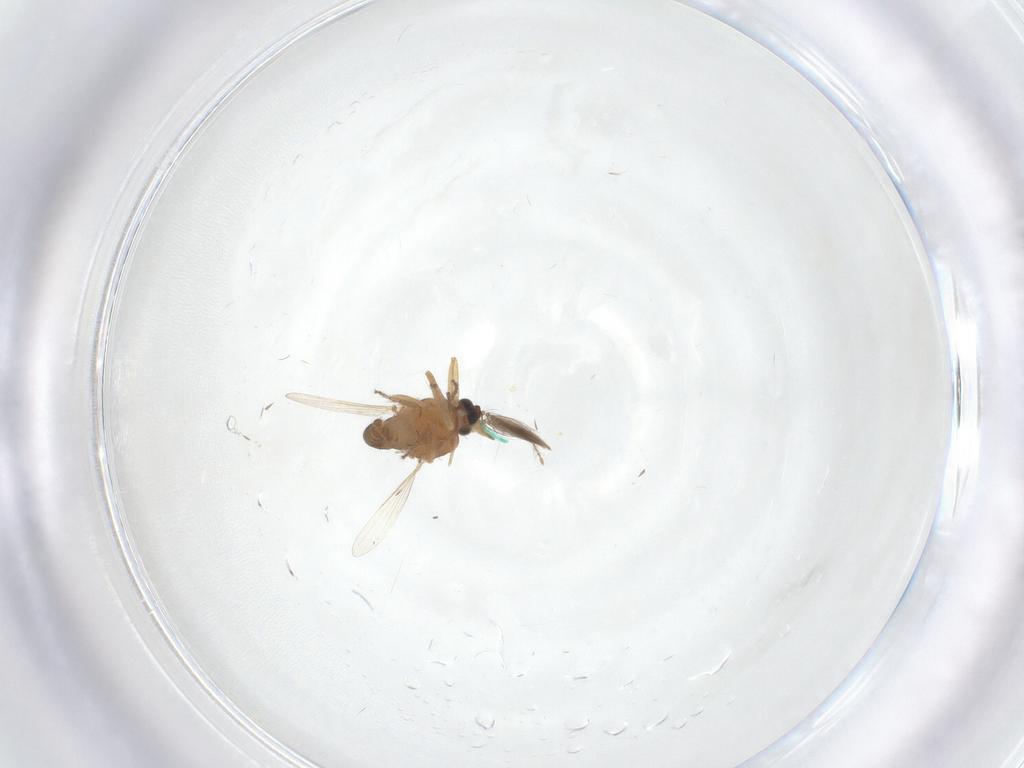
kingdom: Animalia
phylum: Arthropoda
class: Insecta
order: Diptera
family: Ceratopogonidae
